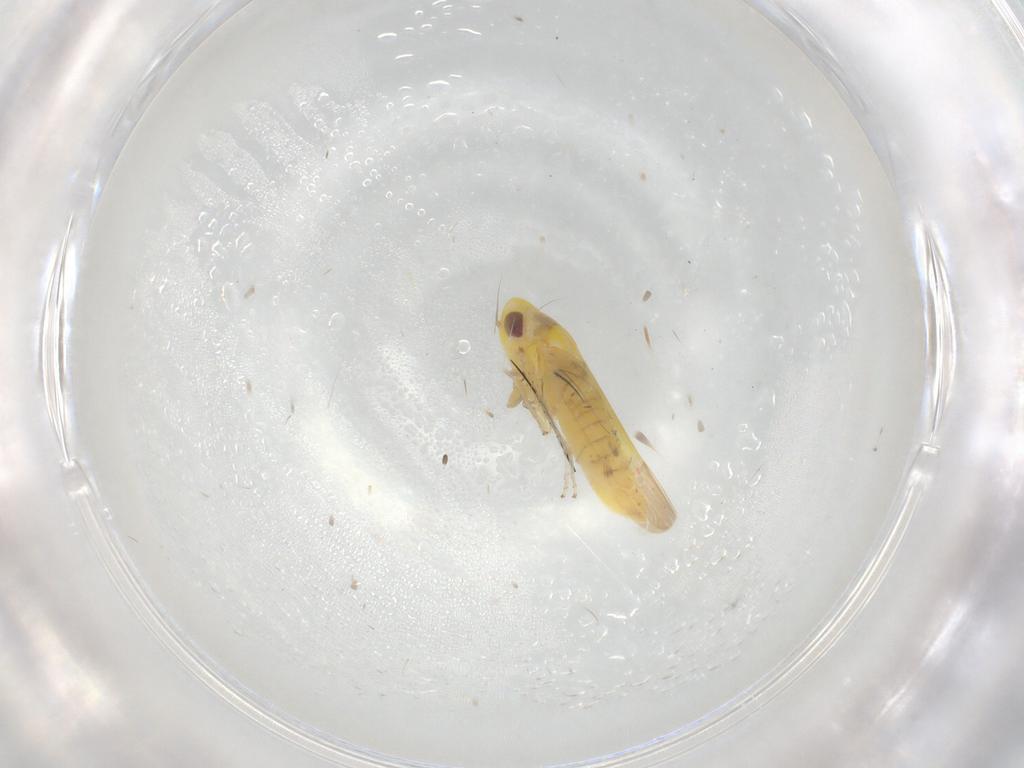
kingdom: Animalia
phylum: Arthropoda
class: Insecta
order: Hemiptera
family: Cicadellidae
